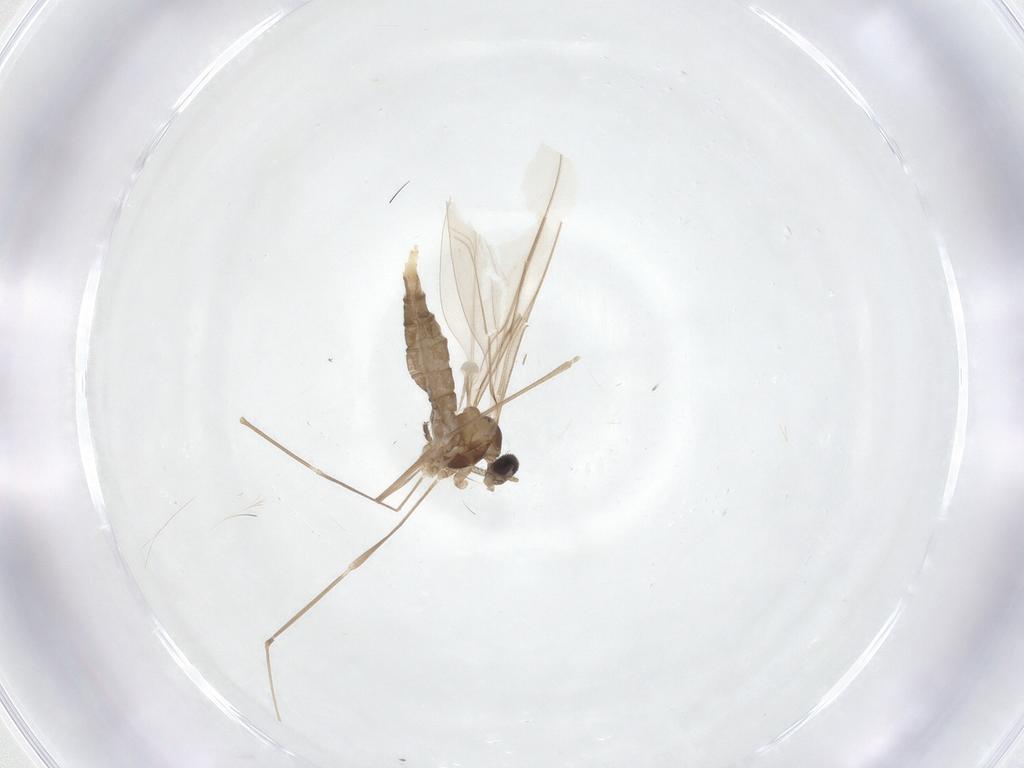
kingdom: Animalia
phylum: Arthropoda
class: Insecta
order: Diptera
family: Cecidomyiidae
